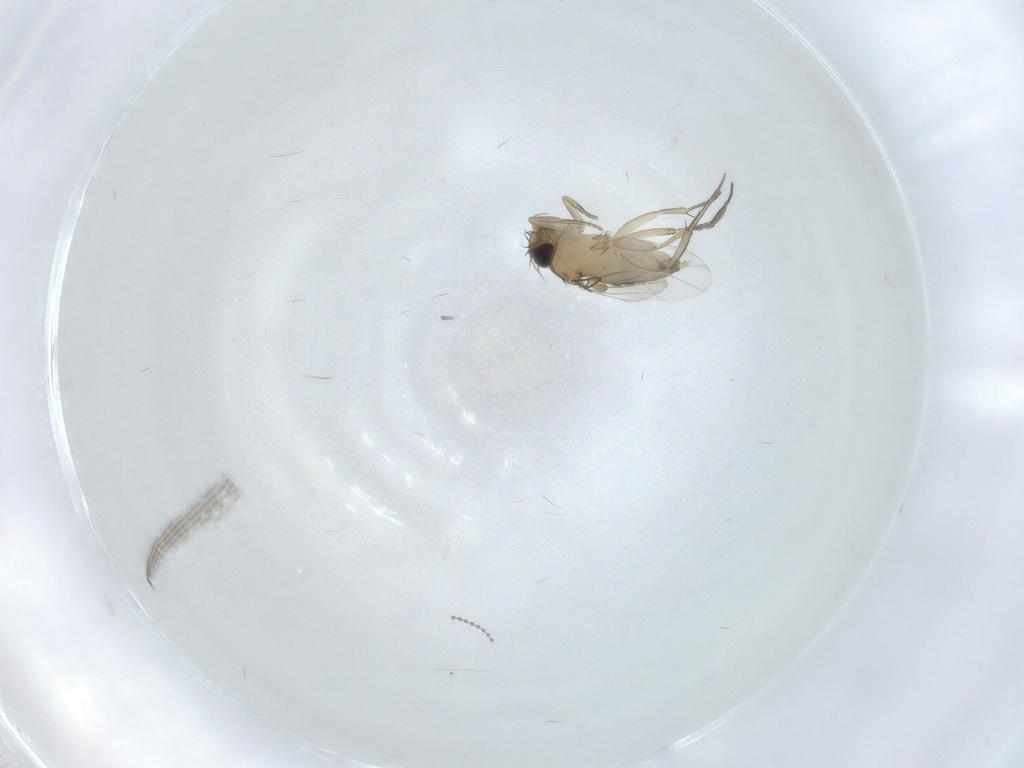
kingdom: Animalia
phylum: Arthropoda
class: Insecta
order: Diptera
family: Phoridae
